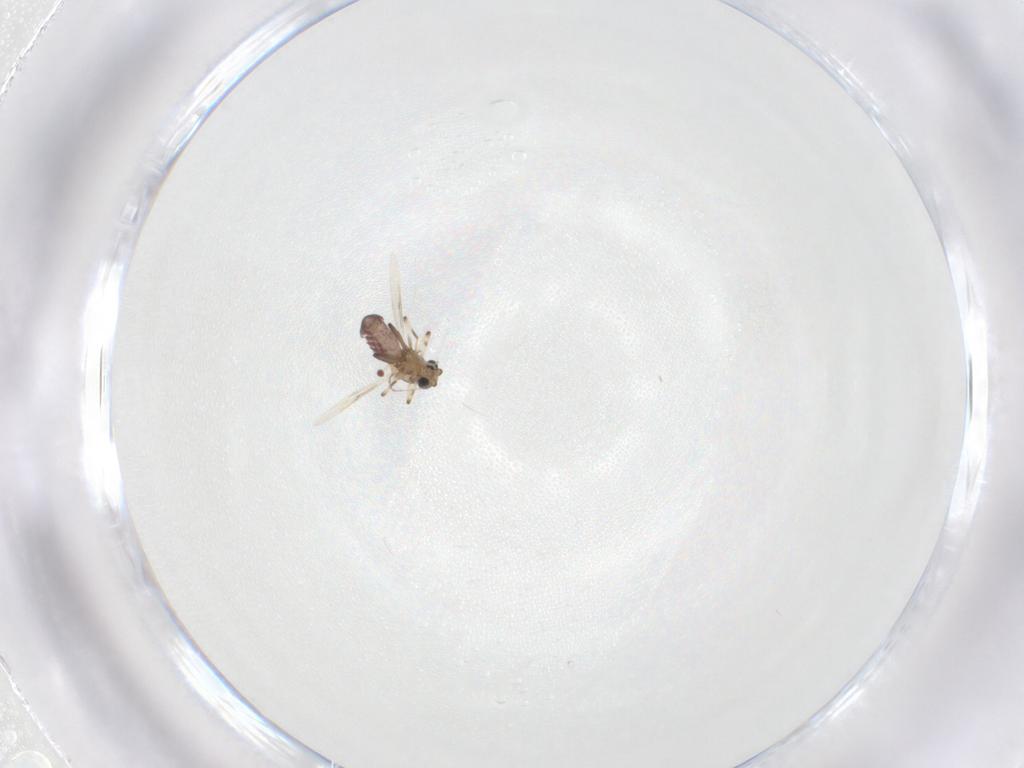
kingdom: Animalia
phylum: Arthropoda
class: Insecta
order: Diptera
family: Ceratopogonidae
